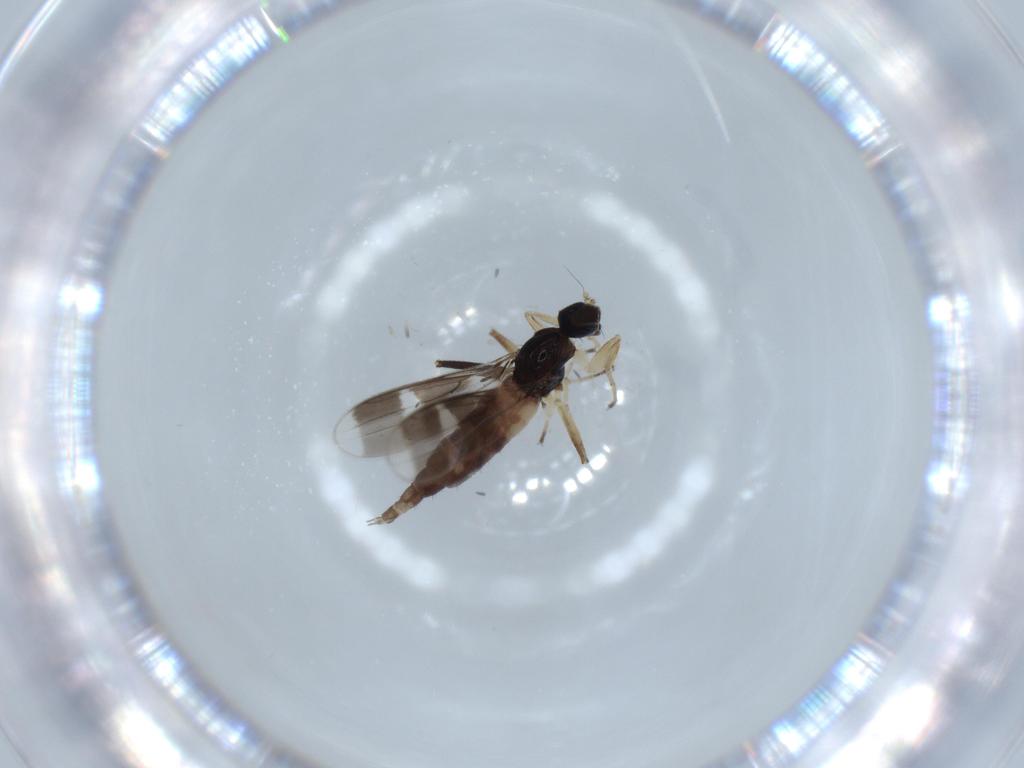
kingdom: Animalia
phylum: Arthropoda
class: Insecta
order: Diptera
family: Hybotidae
